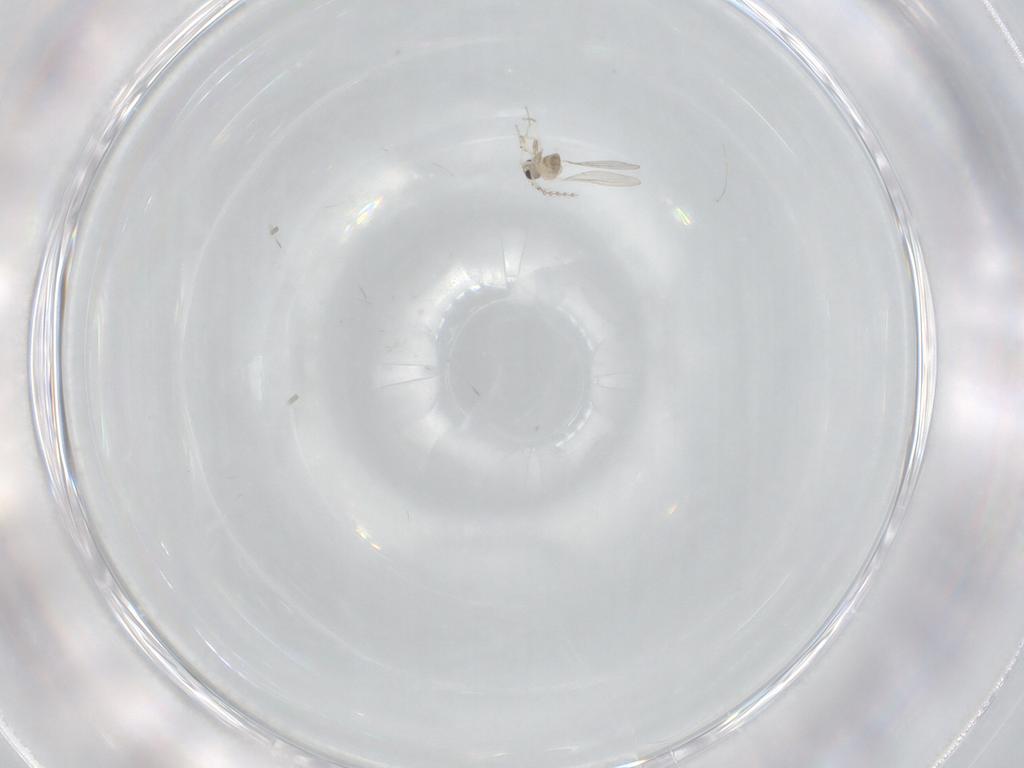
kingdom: Animalia
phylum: Arthropoda
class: Insecta
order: Diptera
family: Cecidomyiidae
